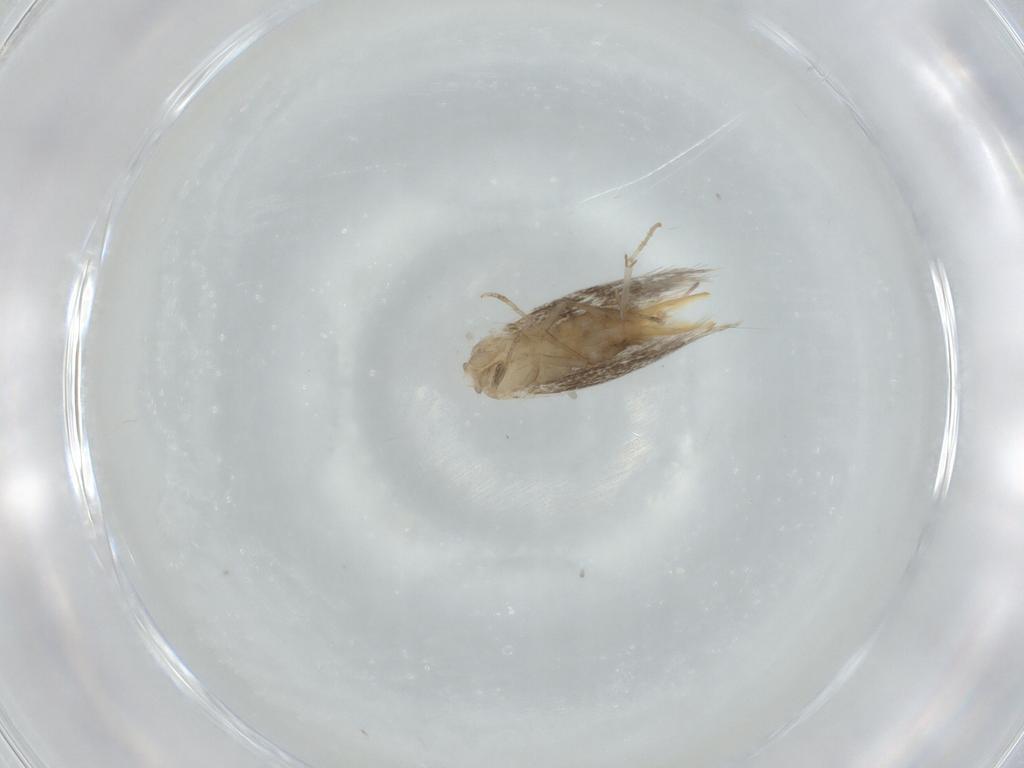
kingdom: Animalia
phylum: Arthropoda
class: Insecta
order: Lepidoptera
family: Elachistidae
